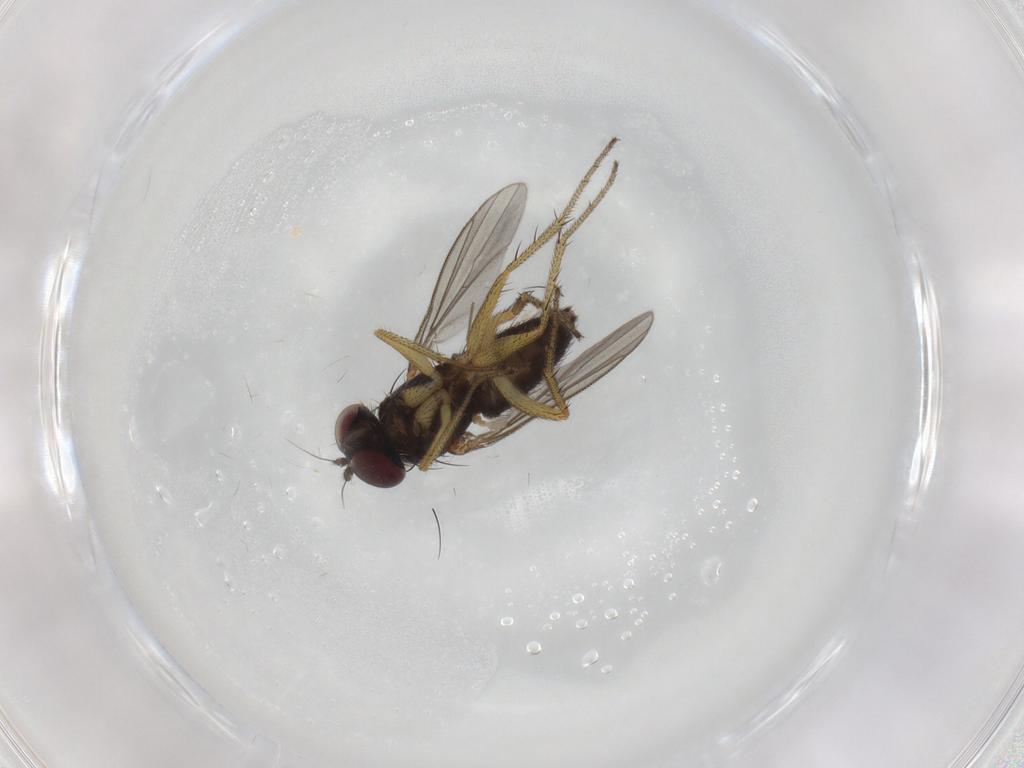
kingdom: Animalia
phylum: Arthropoda
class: Insecta
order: Diptera
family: Dolichopodidae
